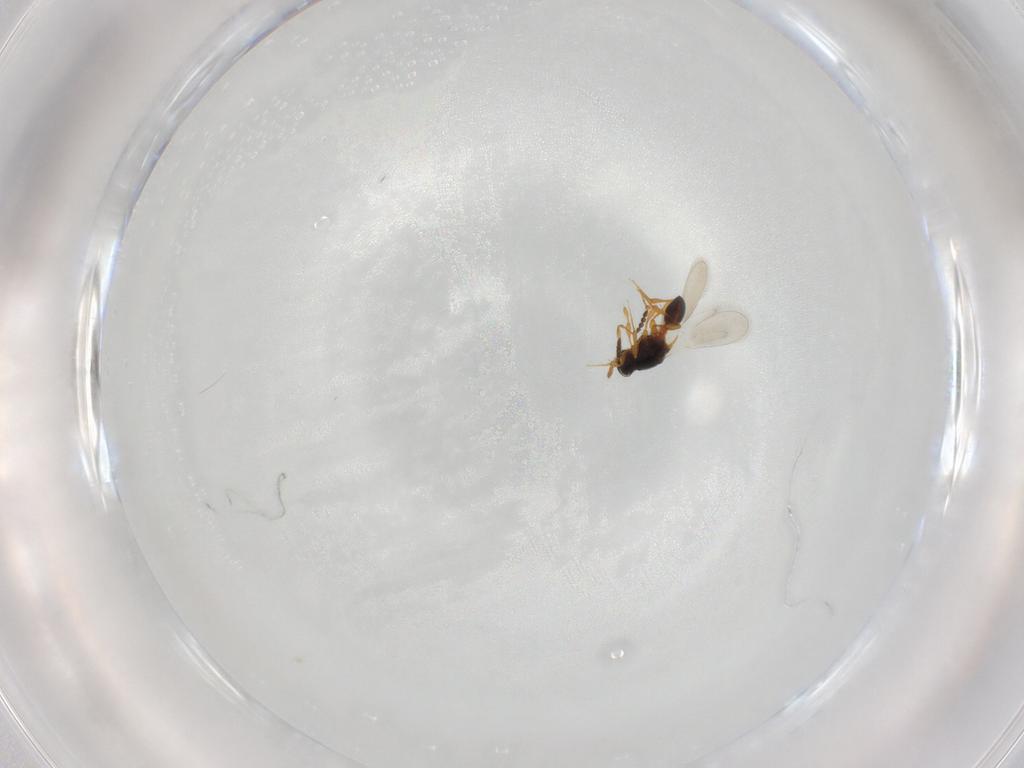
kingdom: Animalia
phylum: Arthropoda
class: Insecta
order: Hymenoptera
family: Platygastridae
